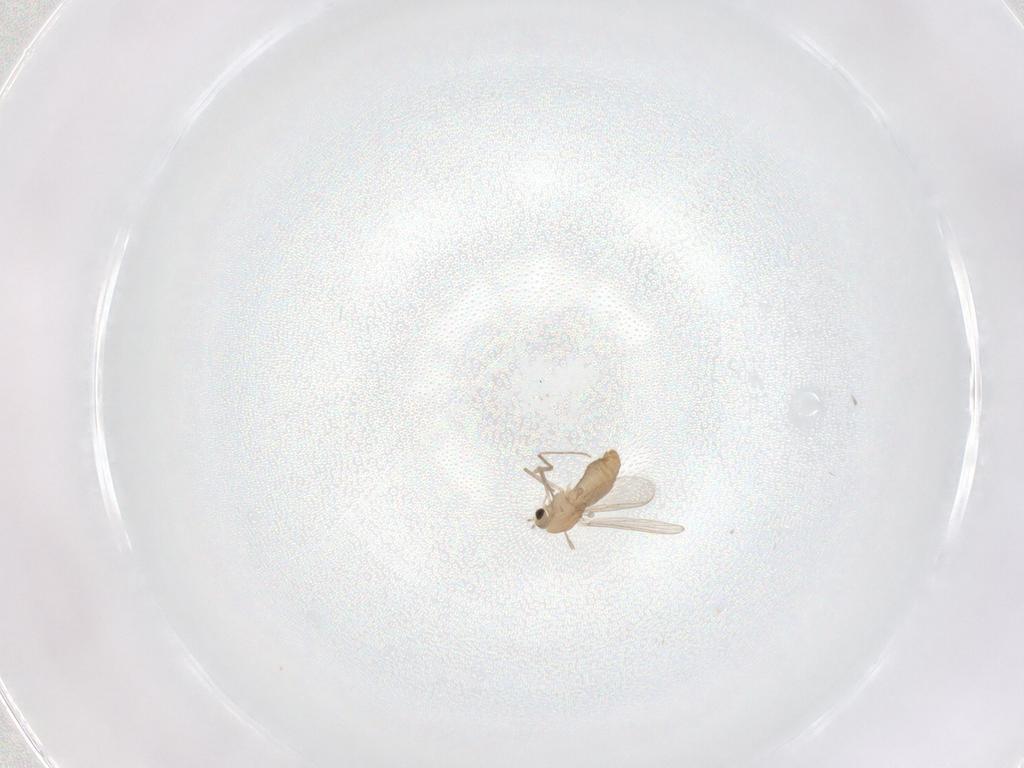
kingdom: Animalia
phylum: Arthropoda
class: Insecta
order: Diptera
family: Chironomidae
